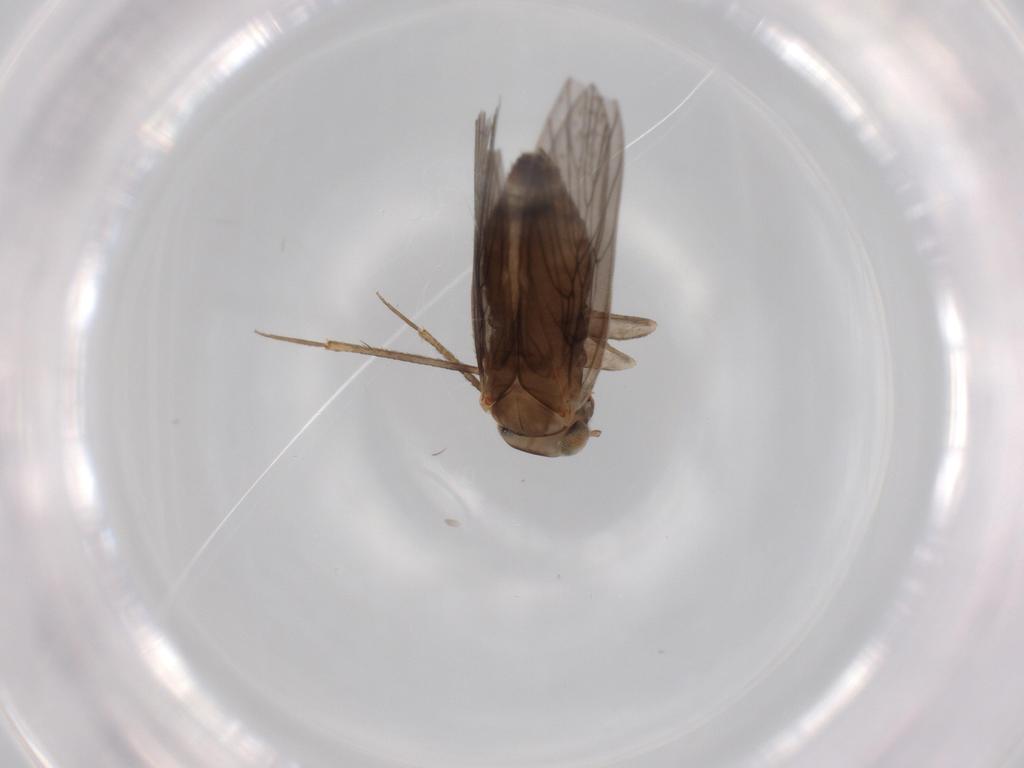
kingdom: Animalia
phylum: Arthropoda
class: Insecta
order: Psocodea
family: Lepidopsocidae
